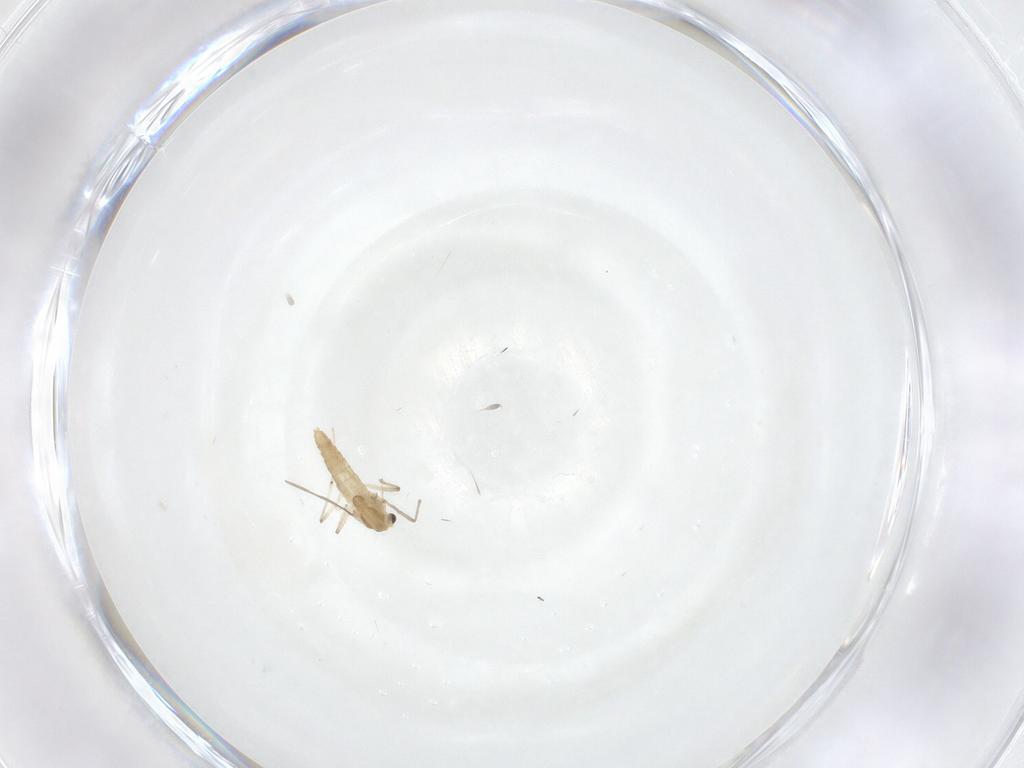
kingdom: Animalia
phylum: Arthropoda
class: Insecta
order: Diptera
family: Chironomidae
